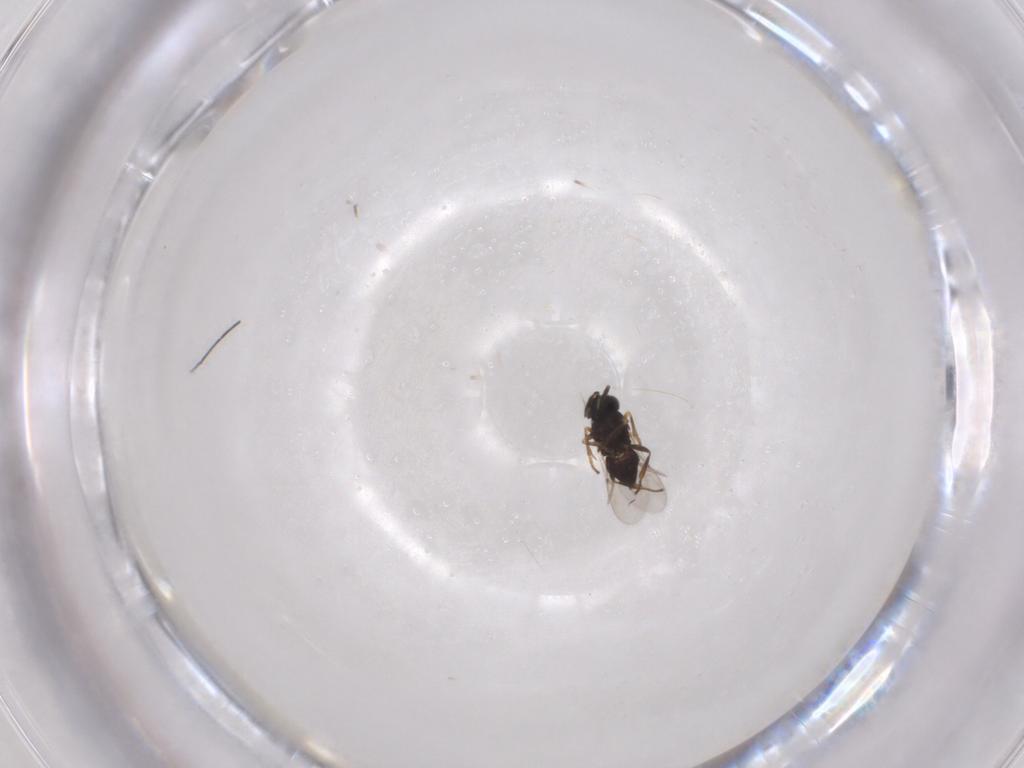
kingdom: Animalia
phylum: Arthropoda
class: Insecta
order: Hymenoptera
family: Encyrtidae
